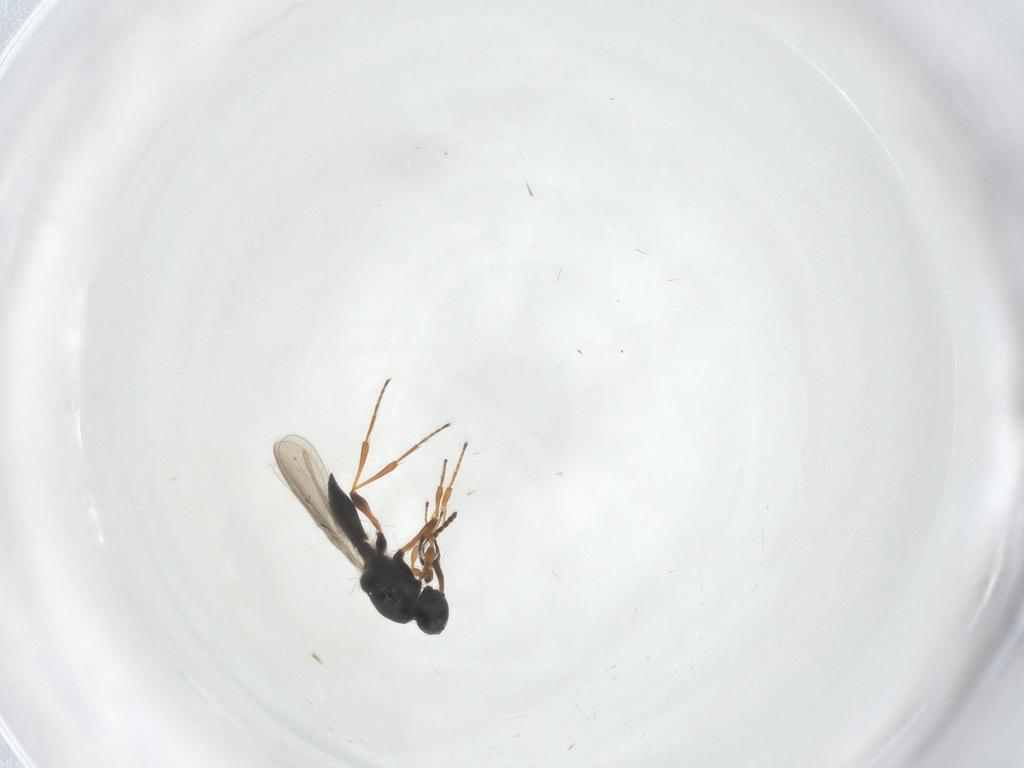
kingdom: Animalia
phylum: Arthropoda
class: Insecta
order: Hymenoptera
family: Platygastridae
